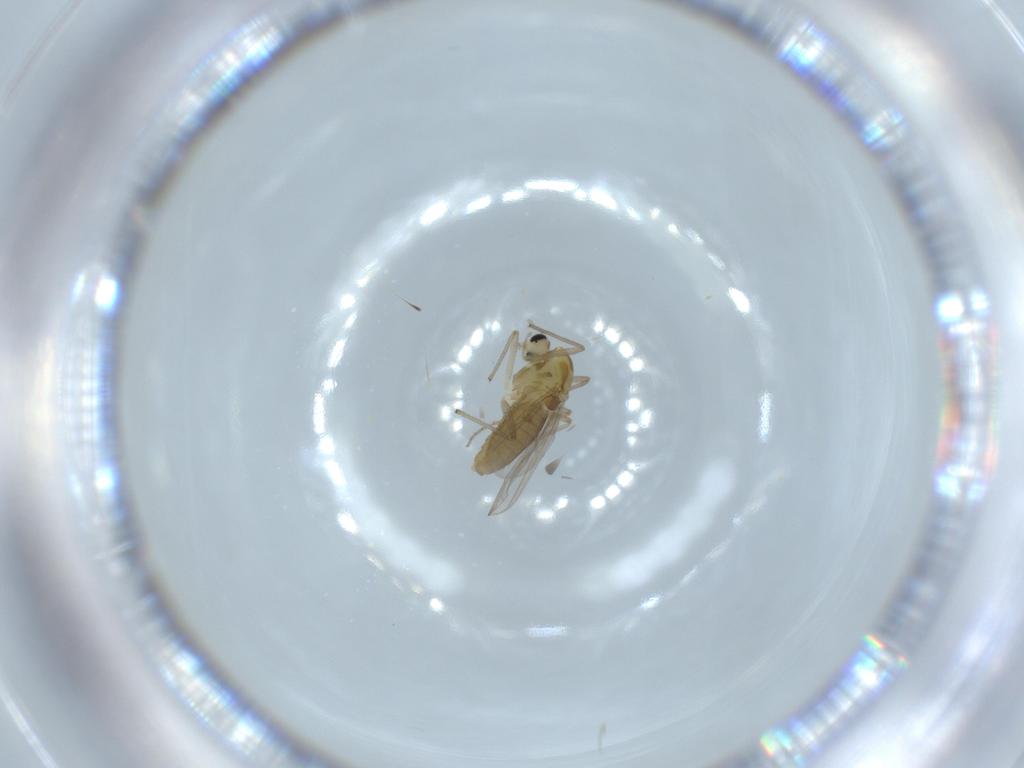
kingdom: Animalia
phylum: Arthropoda
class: Insecta
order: Diptera
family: Chironomidae
